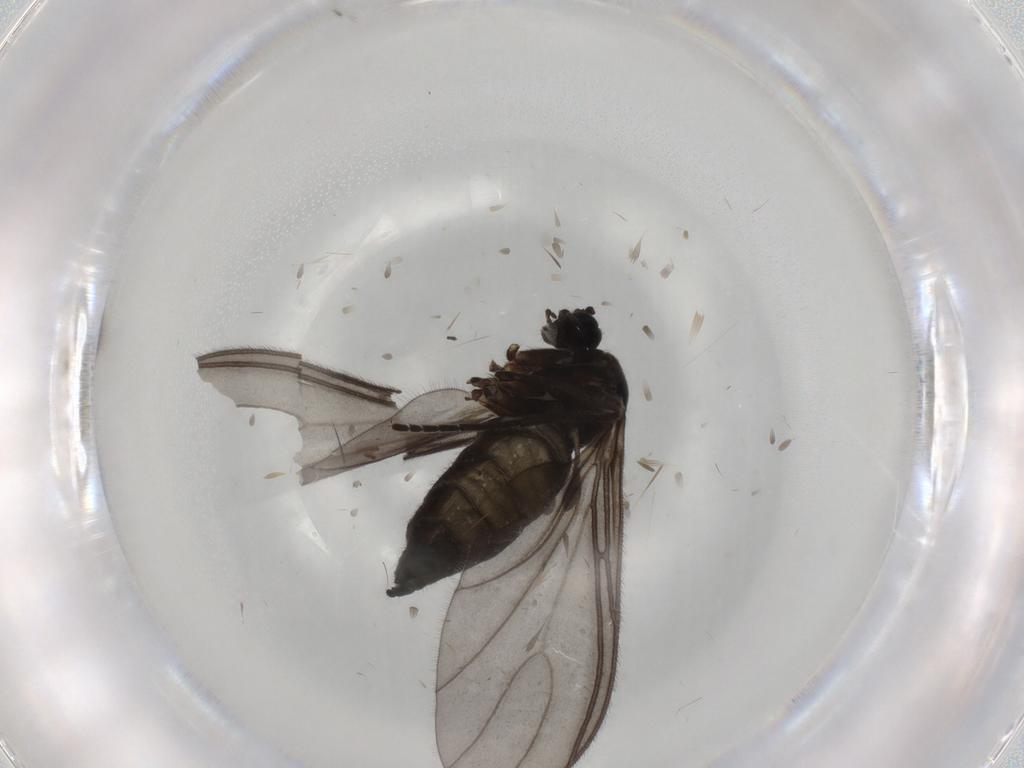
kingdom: Animalia
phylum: Arthropoda
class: Insecta
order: Diptera
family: Sciaridae
